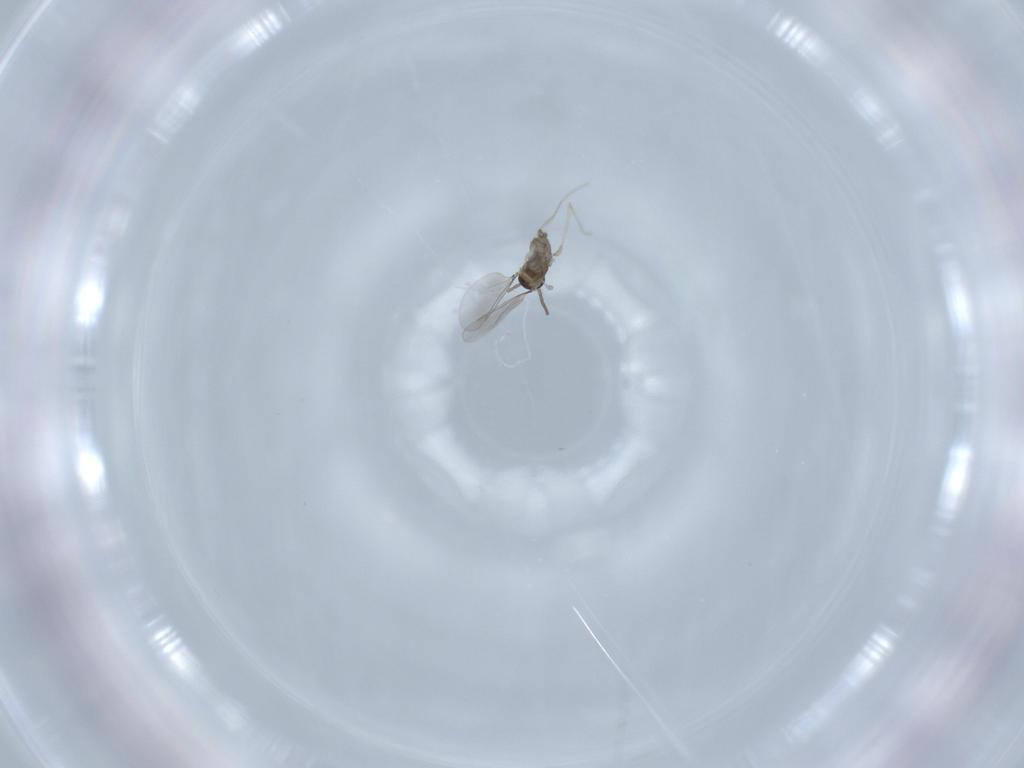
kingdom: Animalia
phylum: Arthropoda
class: Insecta
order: Diptera
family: Cecidomyiidae
